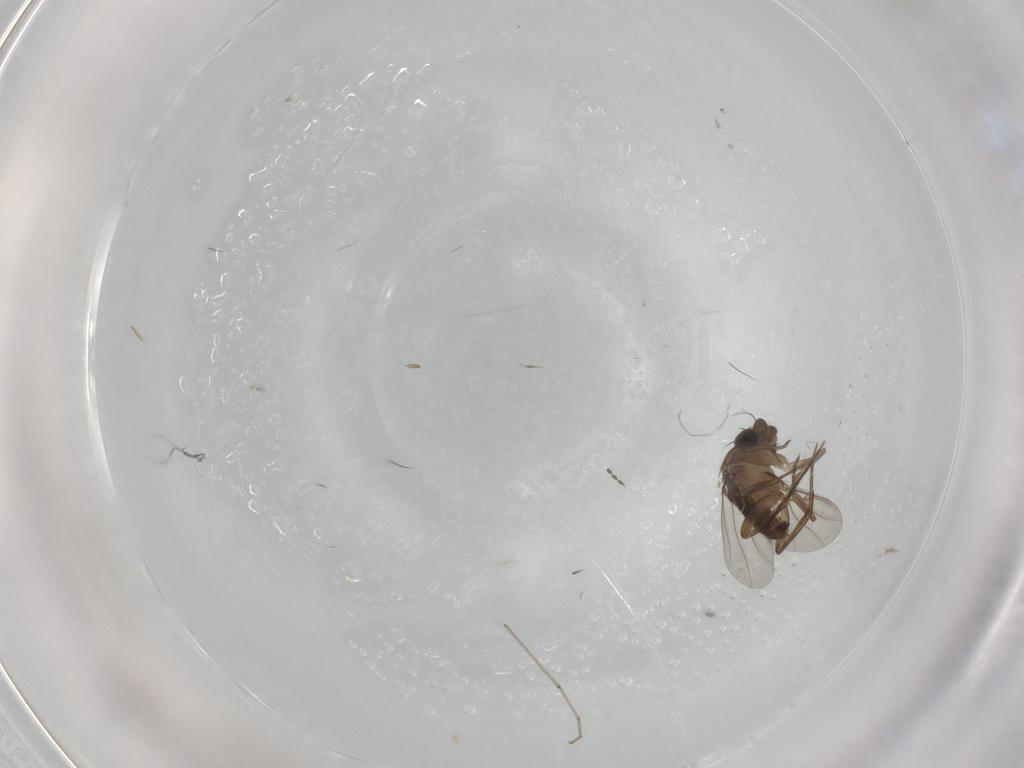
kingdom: Animalia
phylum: Arthropoda
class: Insecta
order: Diptera
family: Phoridae
